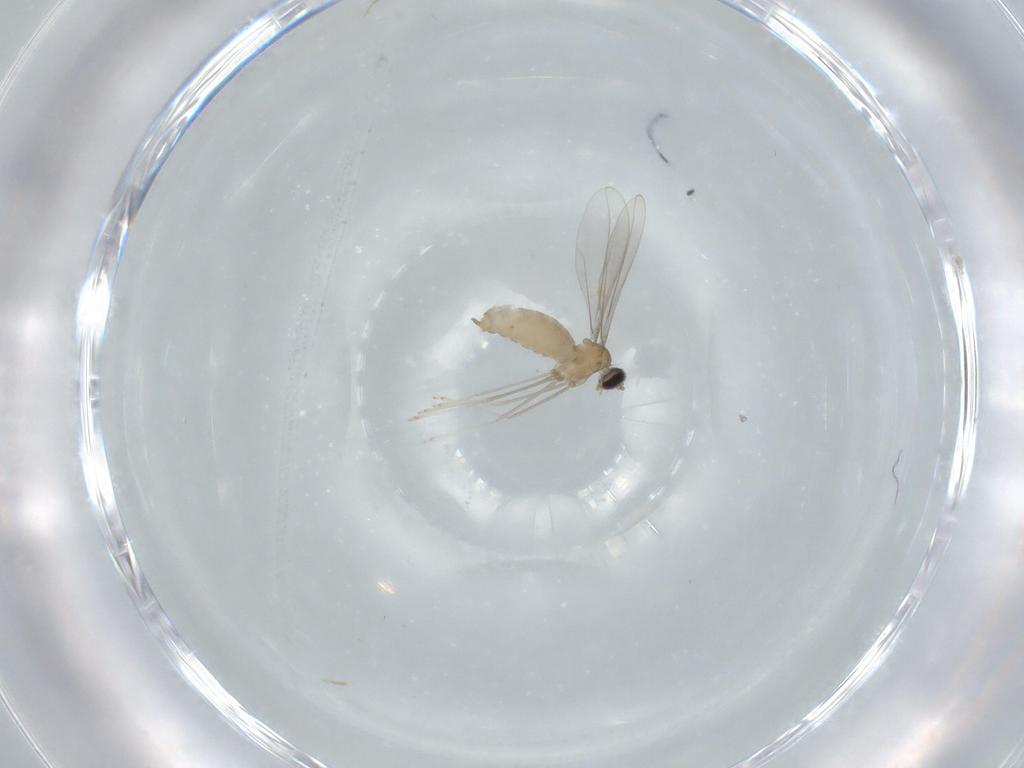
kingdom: Animalia
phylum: Arthropoda
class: Insecta
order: Diptera
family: Cecidomyiidae
